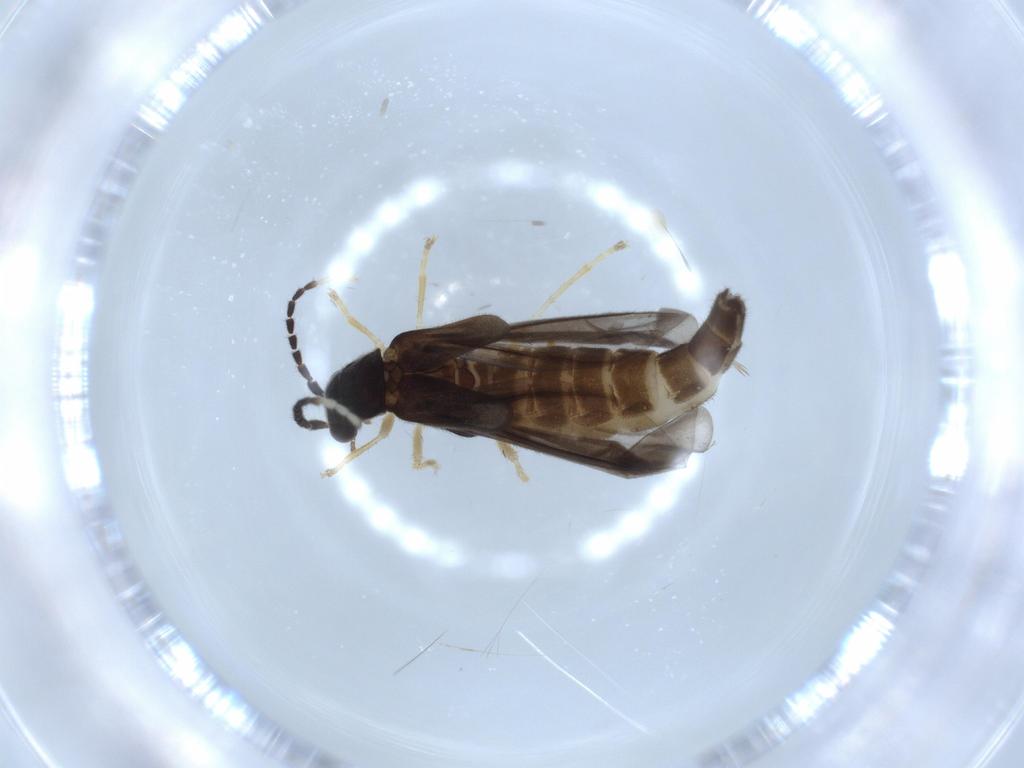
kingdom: Animalia
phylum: Arthropoda
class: Insecta
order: Coleoptera
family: Cantharidae
